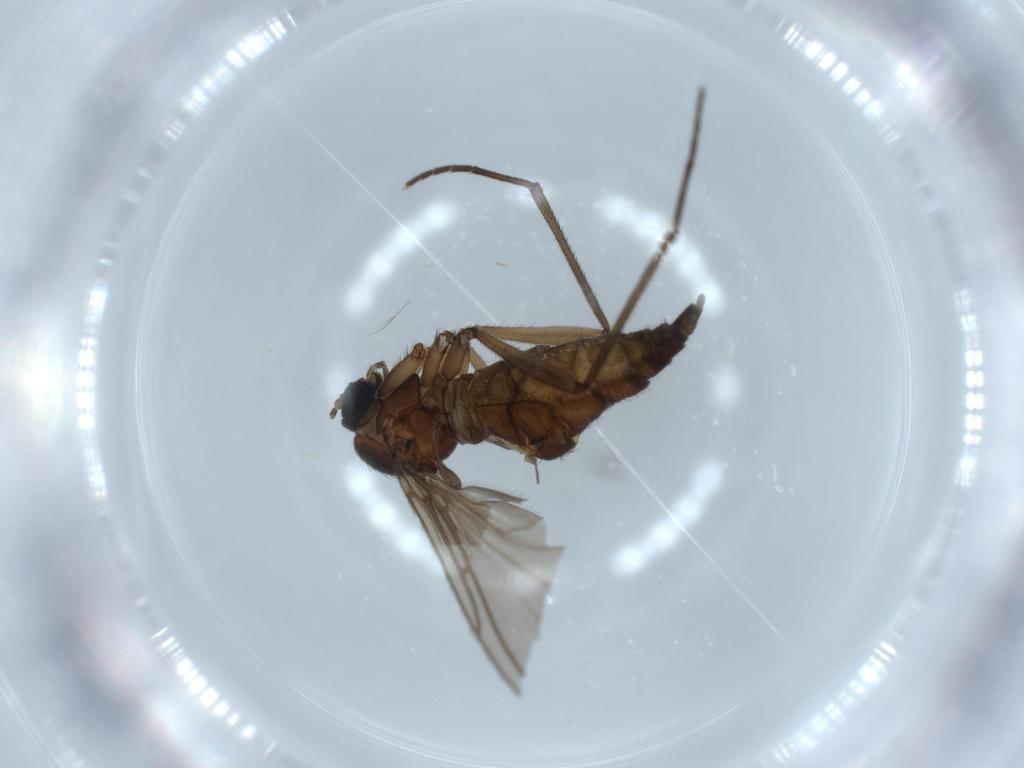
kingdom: Animalia
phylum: Arthropoda
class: Insecta
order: Diptera
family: Sciaridae
